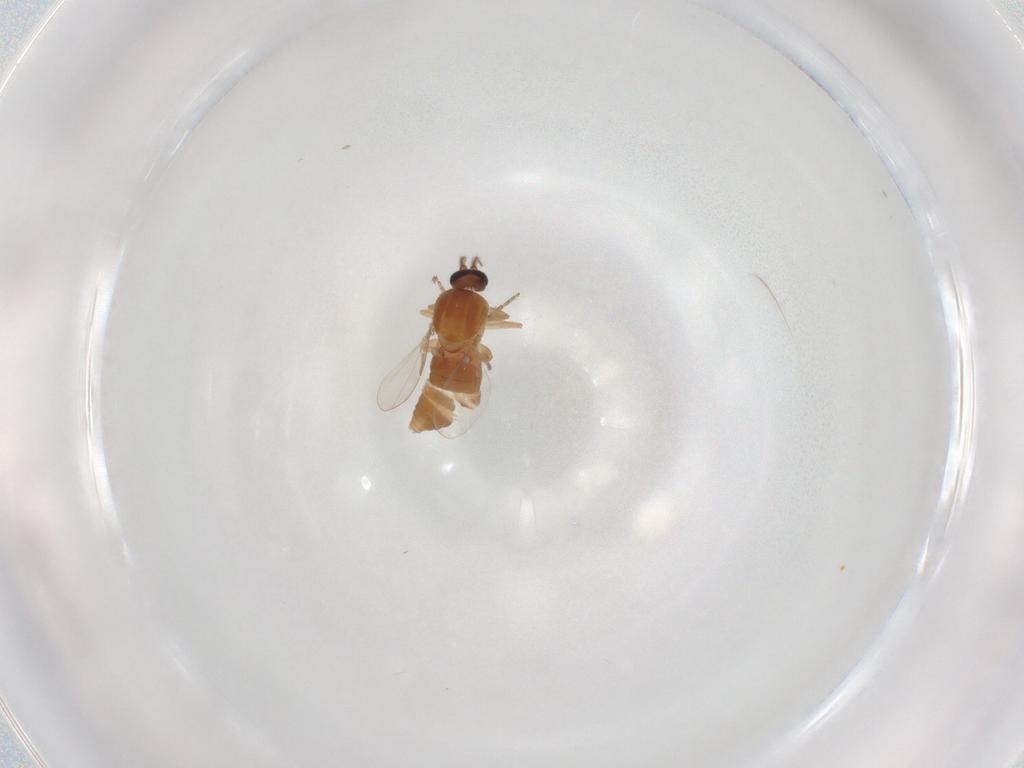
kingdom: Animalia
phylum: Arthropoda
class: Insecta
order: Diptera
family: Ceratopogonidae
